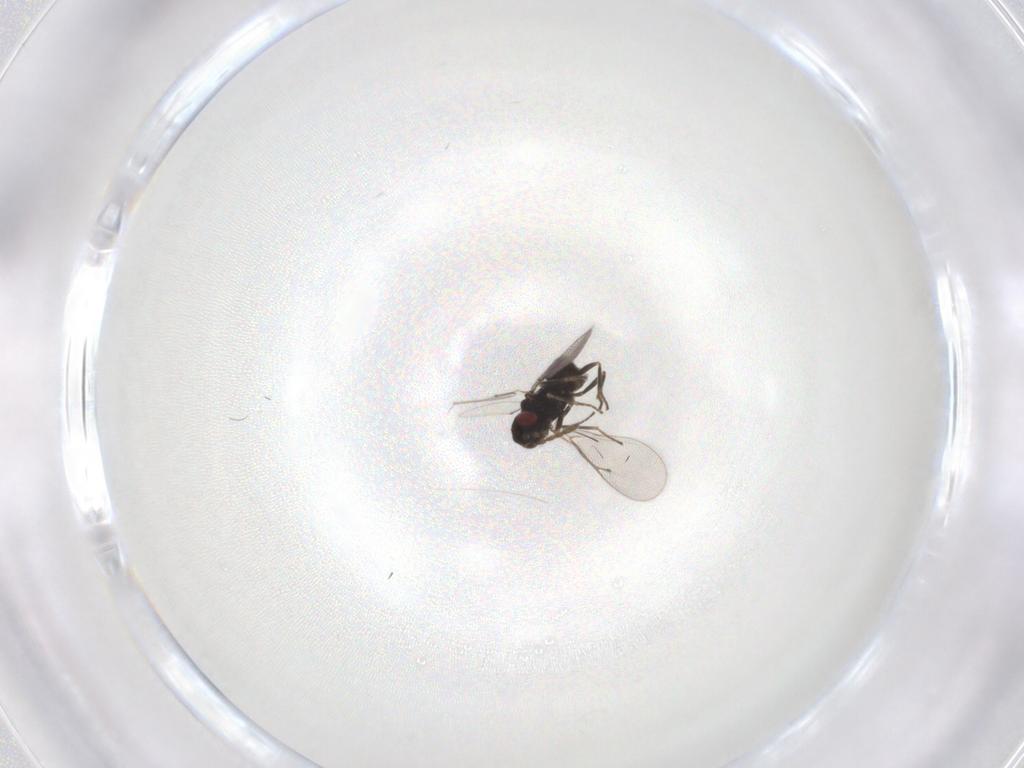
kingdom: Animalia
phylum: Arthropoda
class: Insecta
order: Hymenoptera
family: Eulophidae
